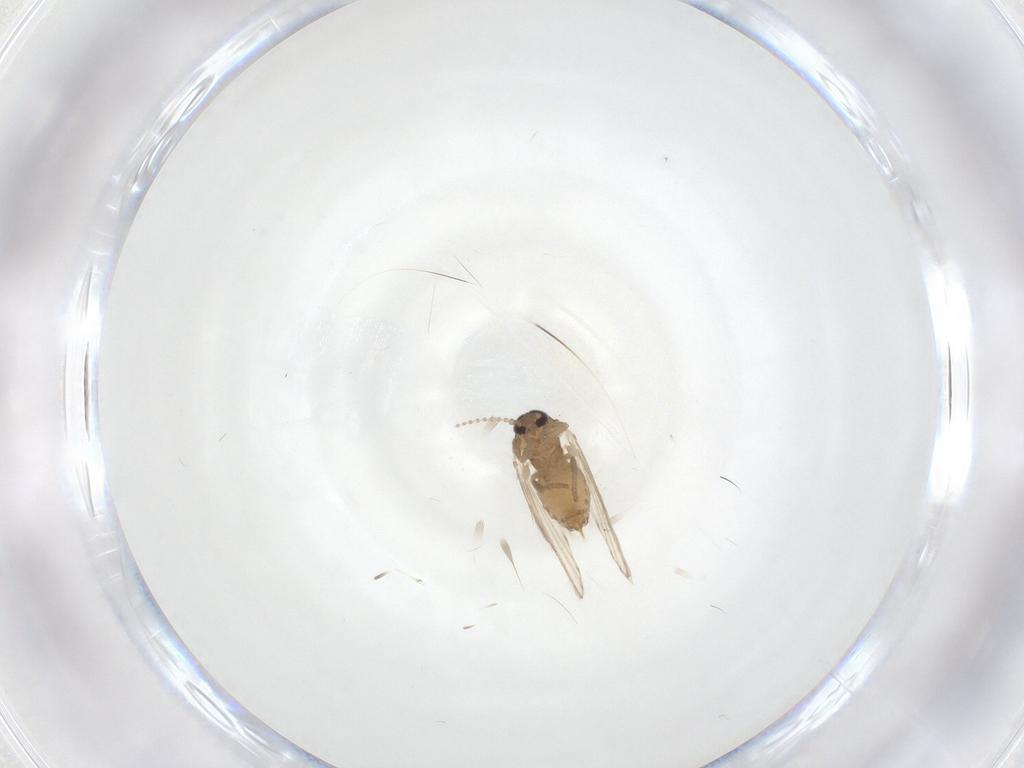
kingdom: Animalia
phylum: Arthropoda
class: Insecta
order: Diptera
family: Psychodidae
